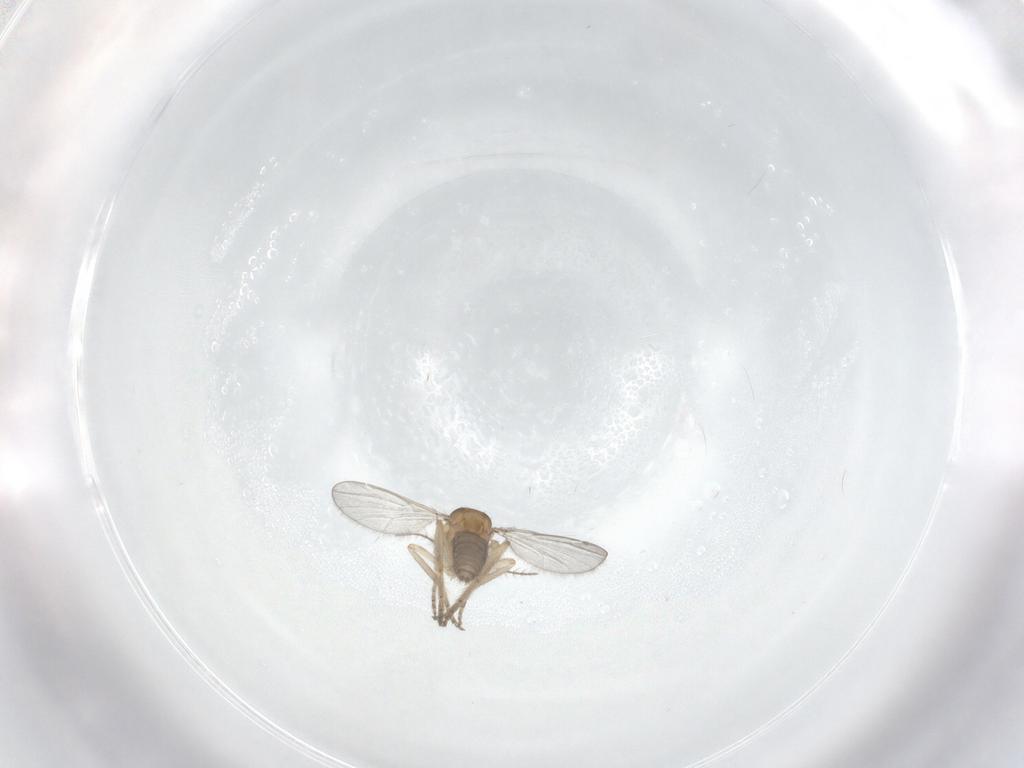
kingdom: Animalia
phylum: Arthropoda
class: Insecta
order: Diptera
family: Ceratopogonidae
